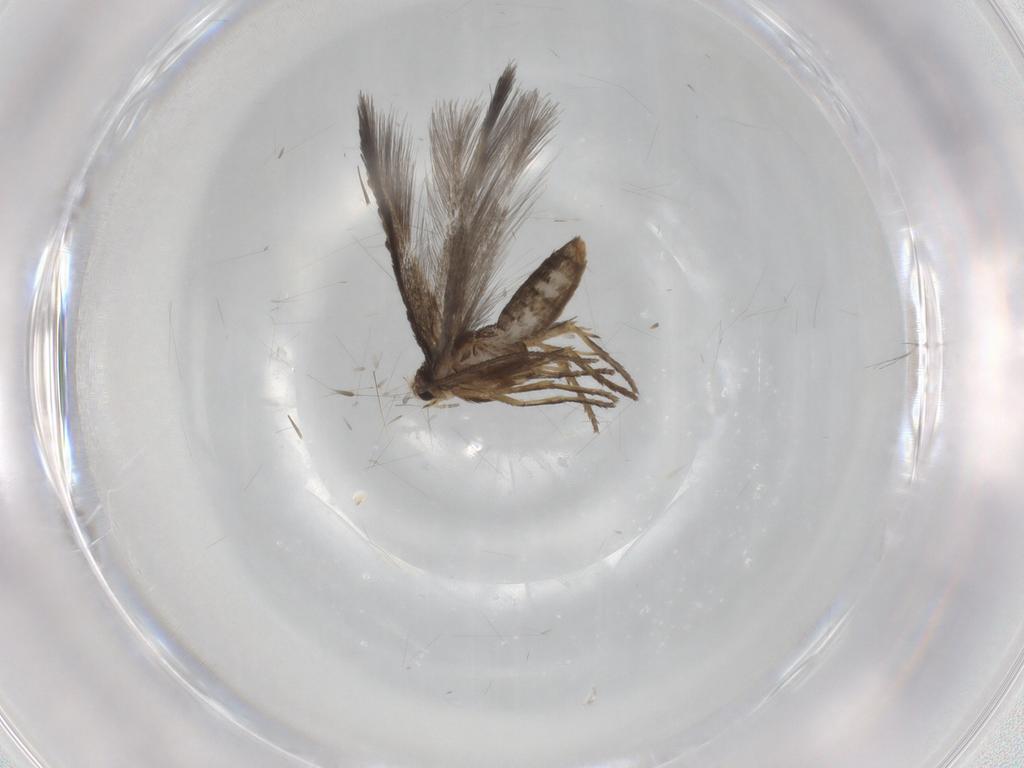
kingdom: Animalia
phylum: Arthropoda
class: Insecta
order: Lepidoptera
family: Nepticulidae
